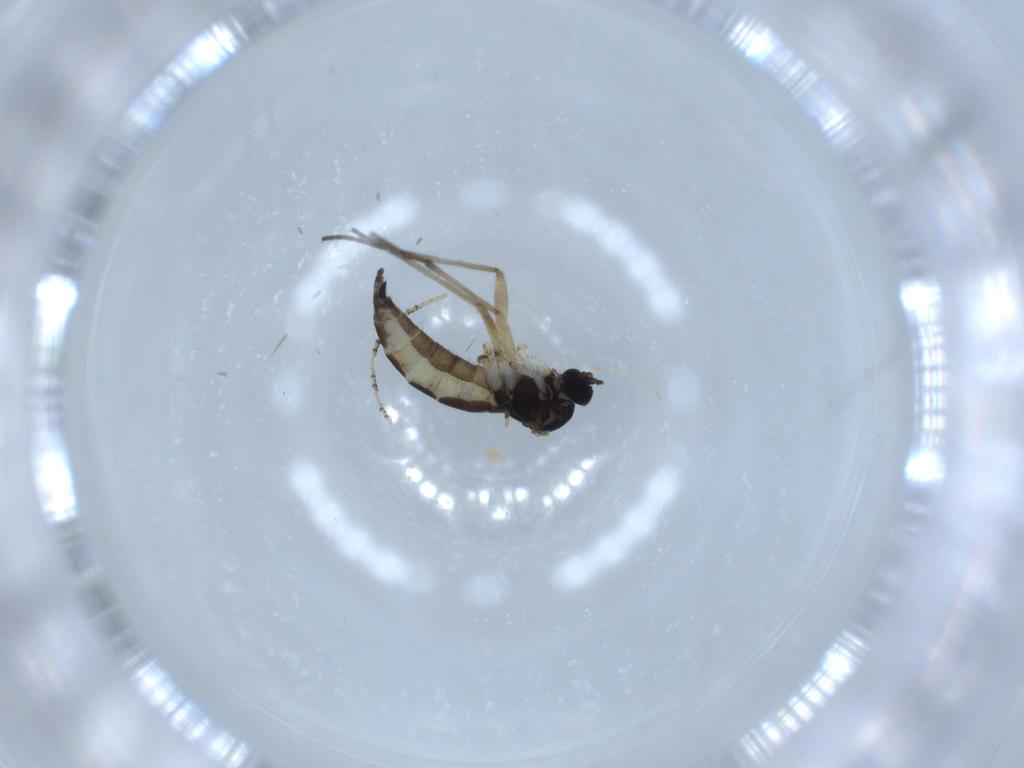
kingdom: Animalia
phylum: Arthropoda
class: Insecta
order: Diptera
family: Sciaridae
